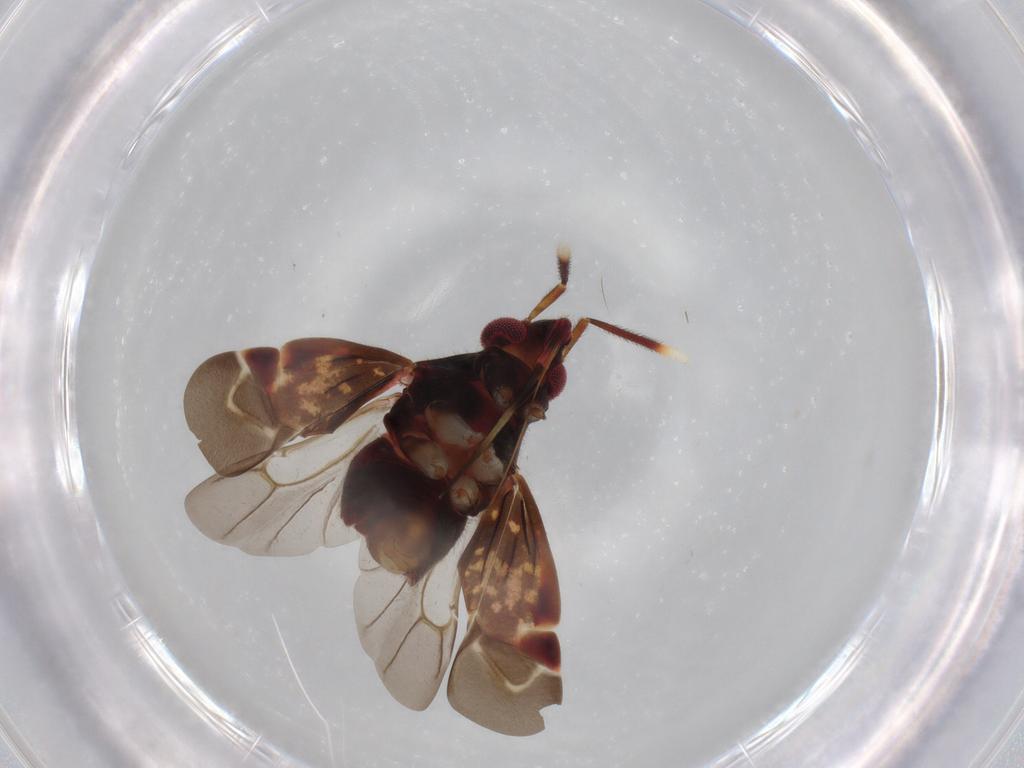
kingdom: Animalia
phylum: Arthropoda
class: Insecta
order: Hemiptera
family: Miridae
